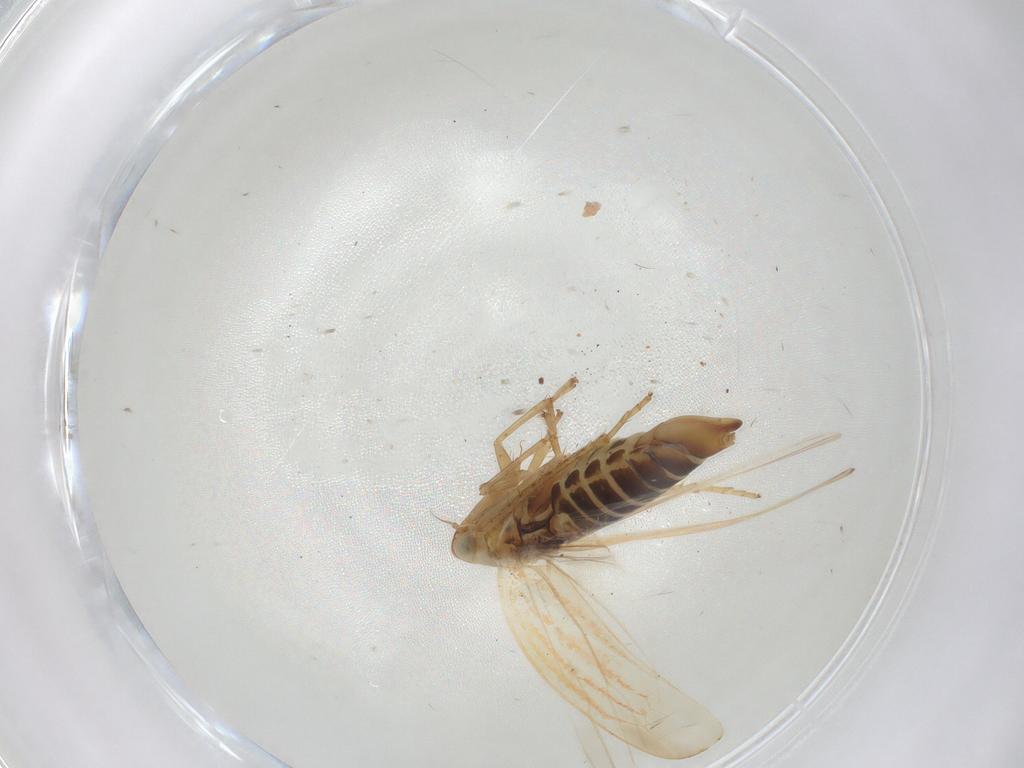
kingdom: Animalia
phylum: Arthropoda
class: Insecta
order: Hemiptera
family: Cicadellidae
